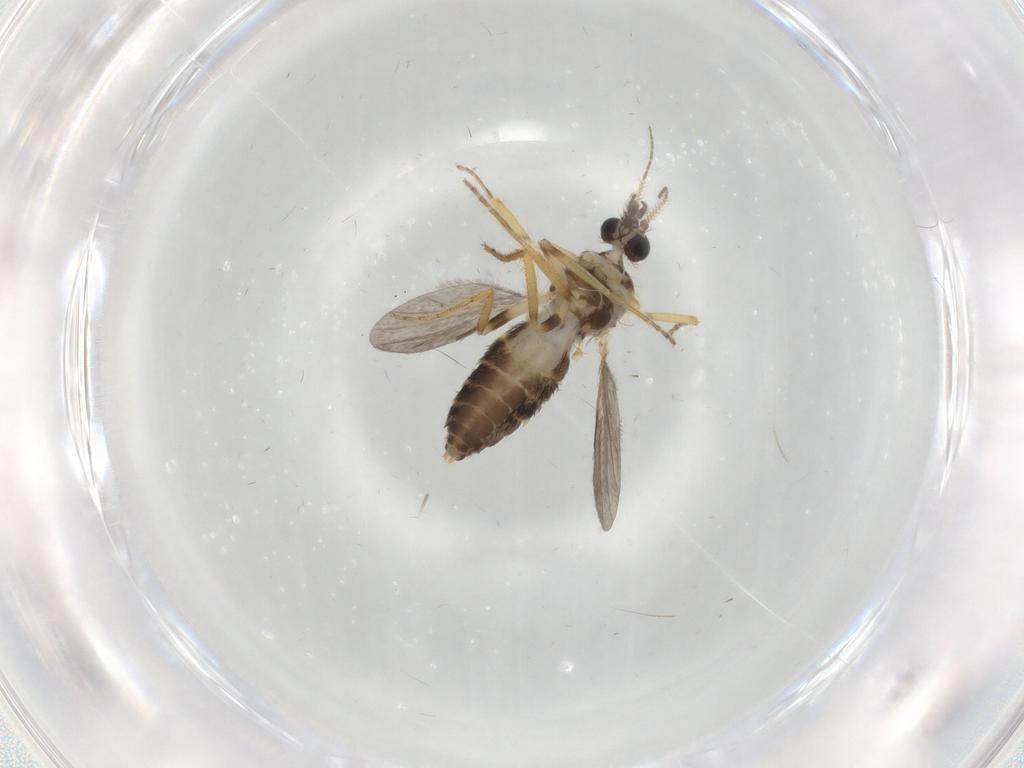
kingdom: Animalia
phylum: Arthropoda
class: Insecta
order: Diptera
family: Ceratopogonidae
